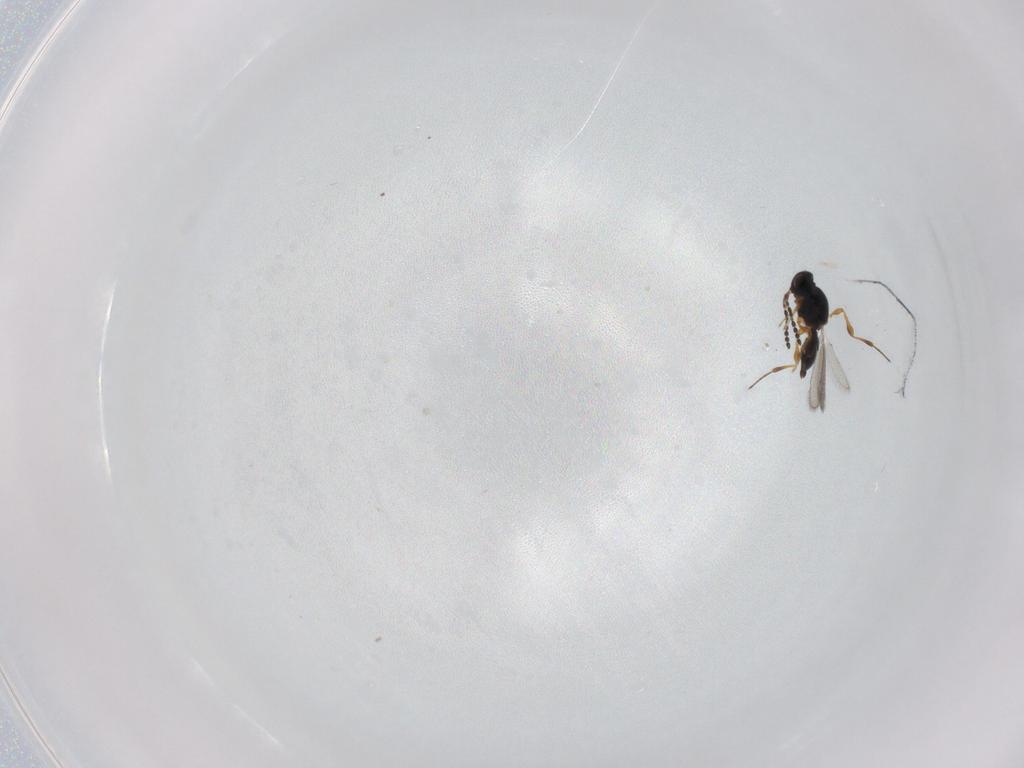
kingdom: Animalia
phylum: Arthropoda
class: Insecta
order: Hymenoptera
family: Platygastridae
